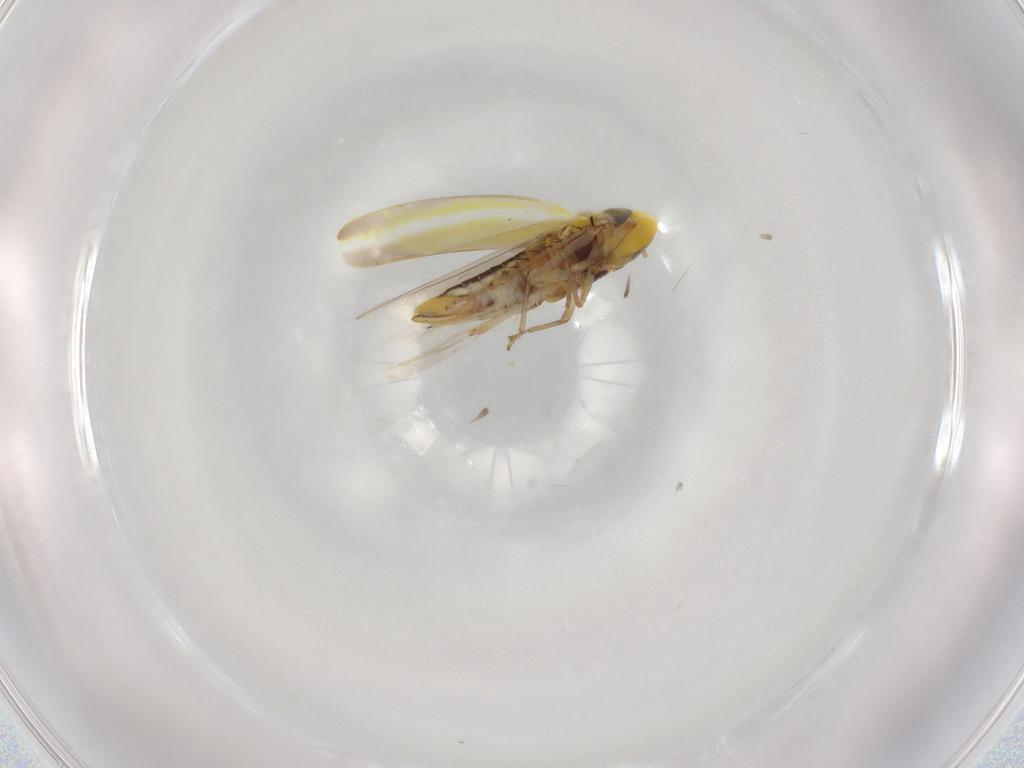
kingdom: Animalia
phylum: Arthropoda
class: Insecta
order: Hemiptera
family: Cicadellidae
